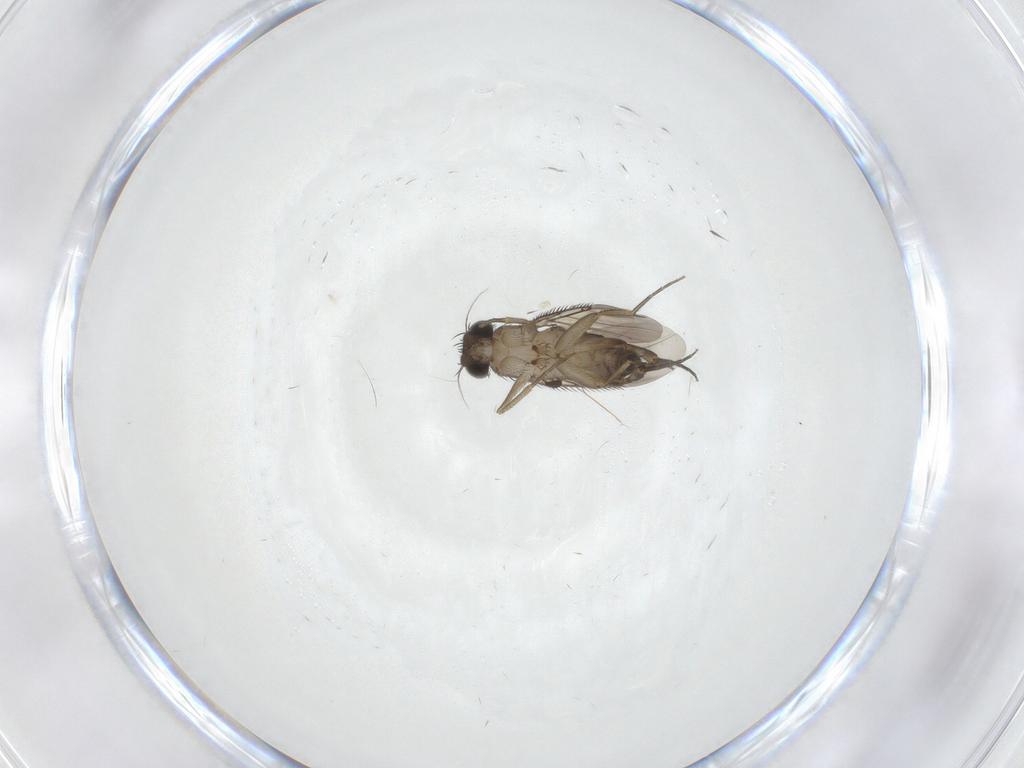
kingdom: Animalia
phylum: Arthropoda
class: Insecta
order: Diptera
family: Phoridae
